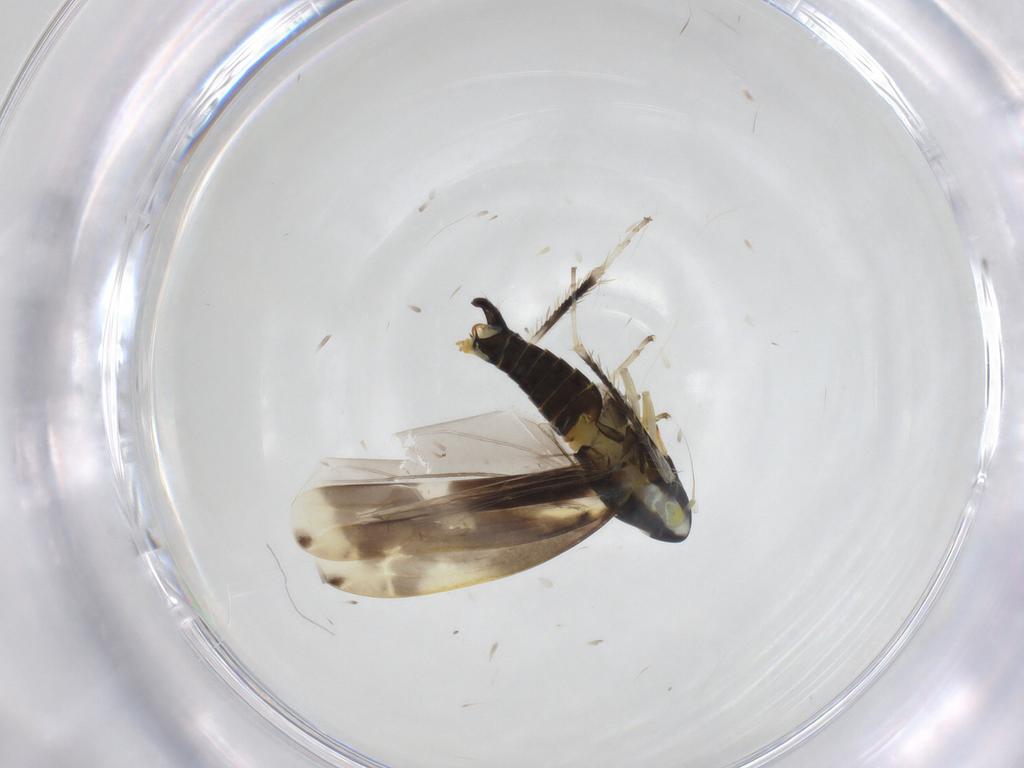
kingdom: Animalia
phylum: Arthropoda
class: Insecta
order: Hemiptera
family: Cicadellidae
